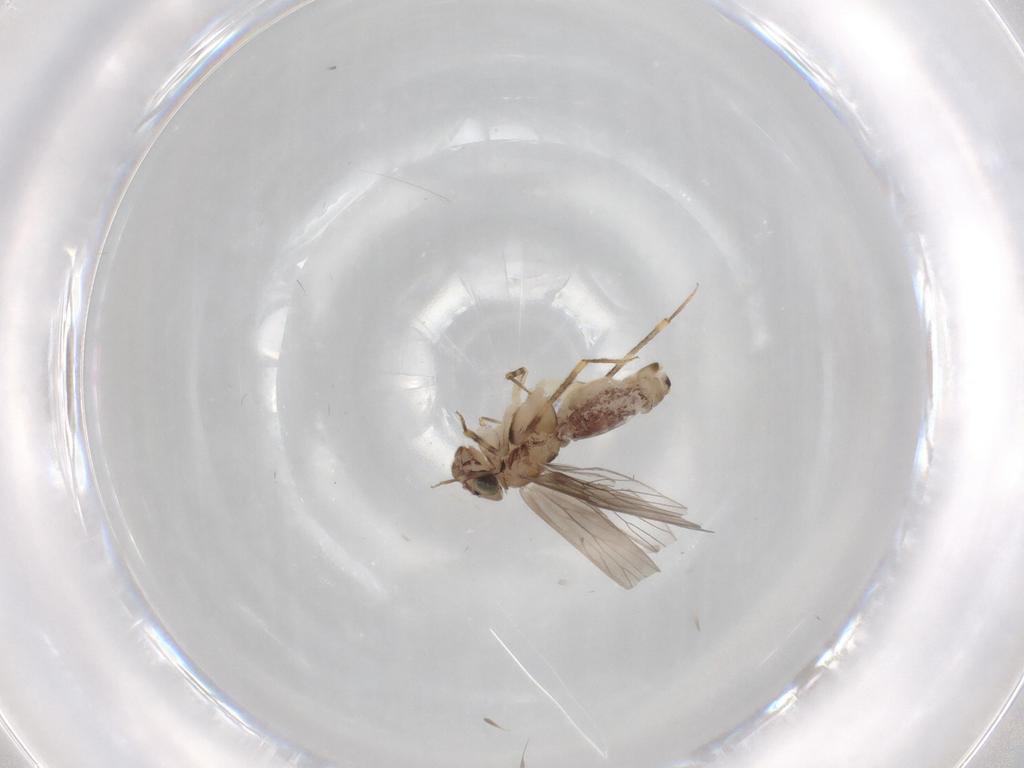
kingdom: Animalia
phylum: Arthropoda
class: Insecta
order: Psocodea
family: Lepidopsocidae
